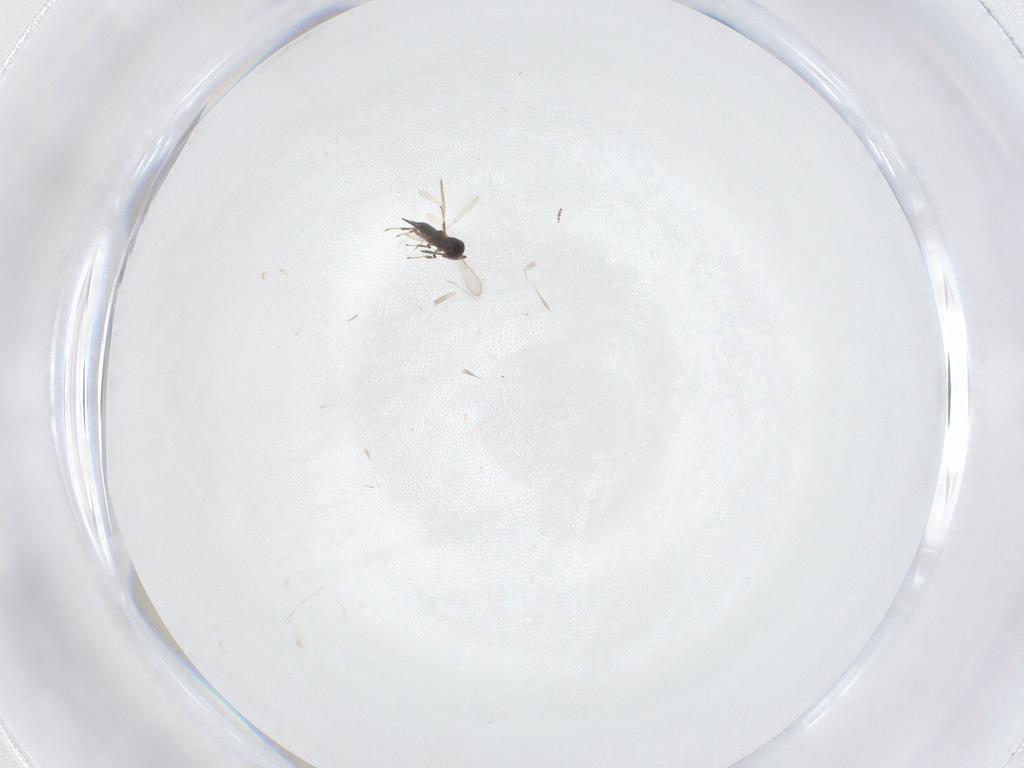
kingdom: Animalia
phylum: Arthropoda
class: Insecta
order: Hymenoptera
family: Scelionidae
